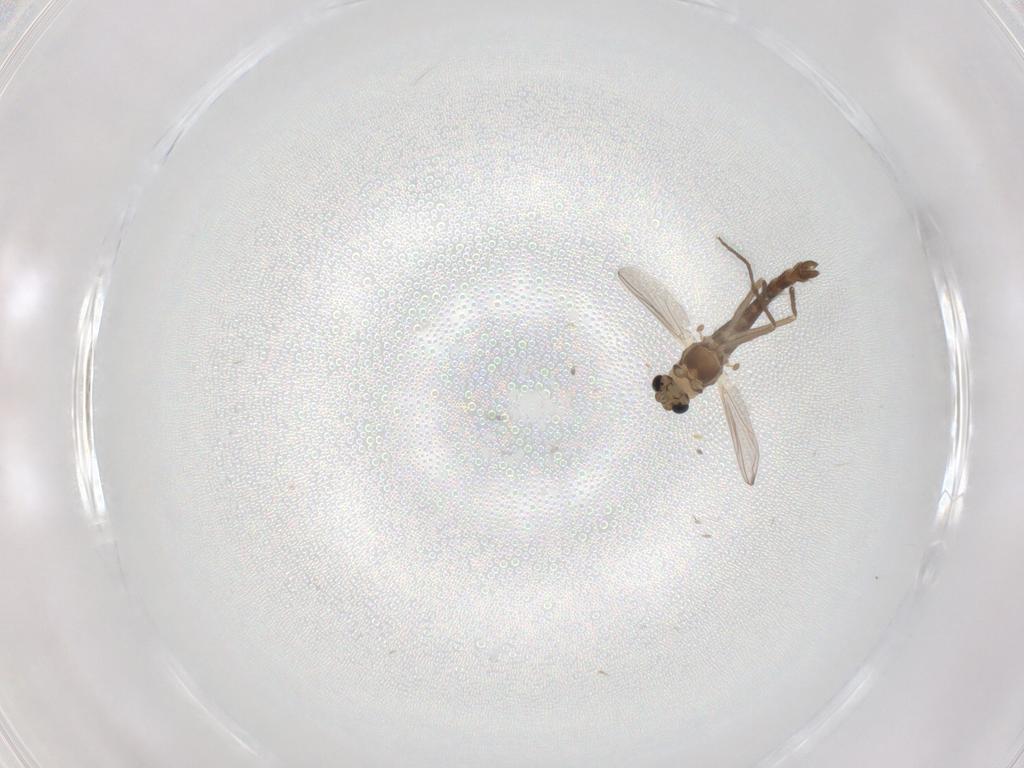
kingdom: Animalia
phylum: Arthropoda
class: Insecta
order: Diptera
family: Chironomidae
